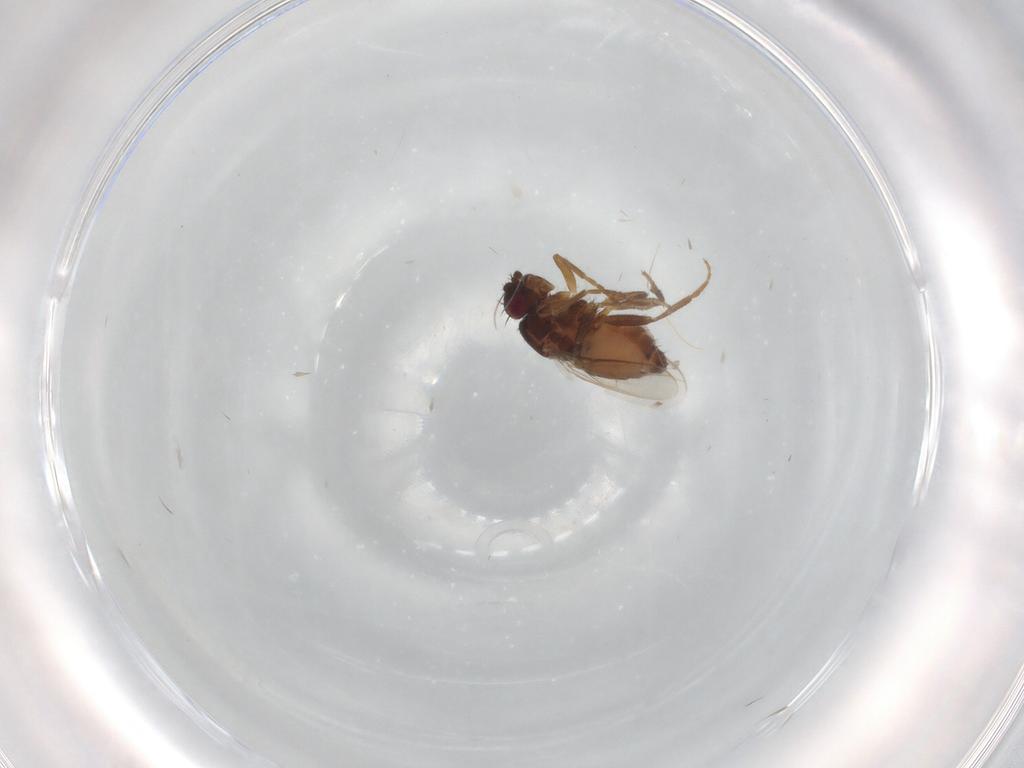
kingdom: Animalia
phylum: Arthropoda
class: Insecta
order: Diptera
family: Sphaeroceridae
